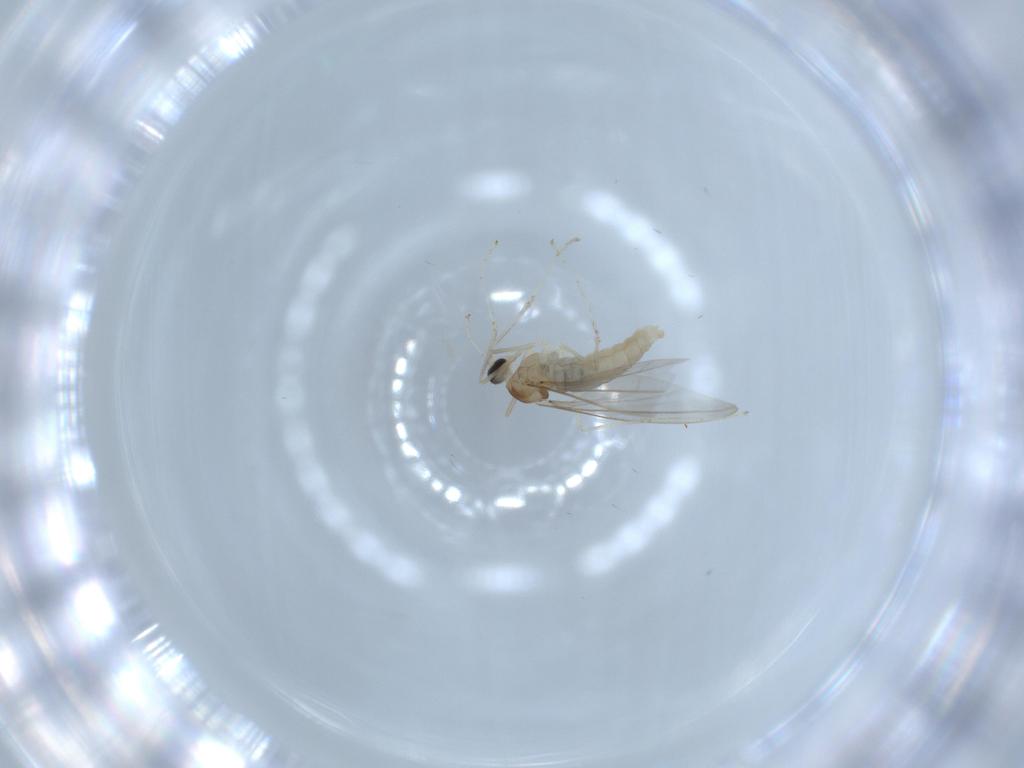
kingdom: Animalia
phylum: Arthropoda
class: Insecta
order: Diptera
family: Cecidomyiidae
